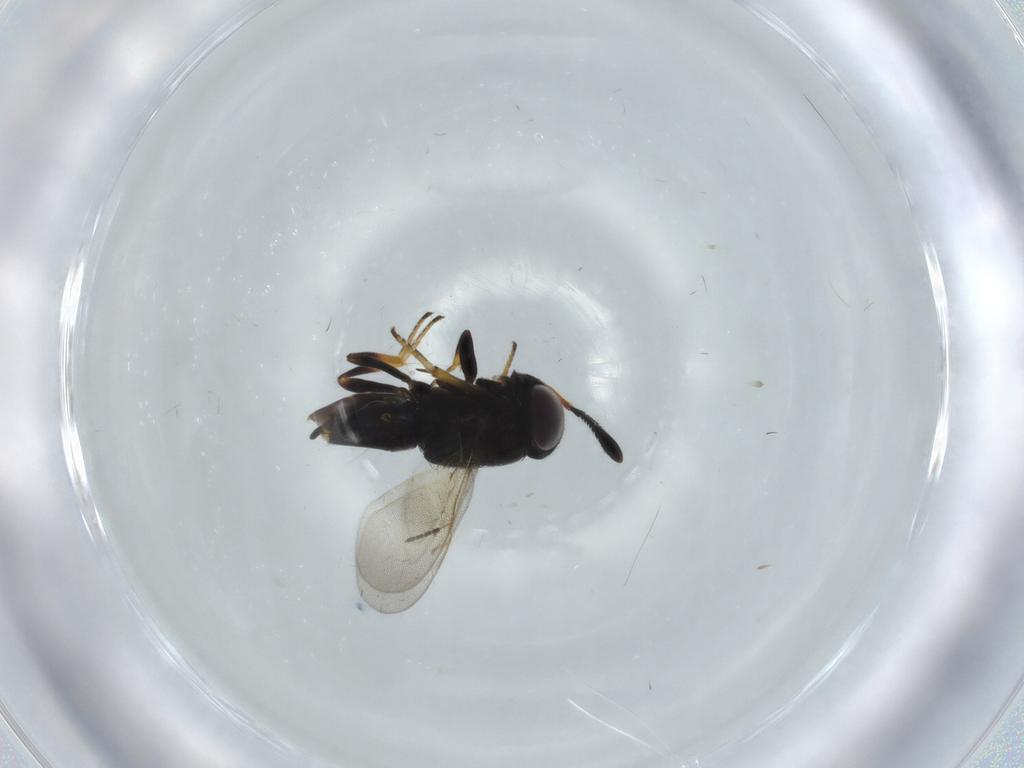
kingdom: Animalia
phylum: Arthropoda
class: Insecta
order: Hymenoptera
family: Encyrtidae
